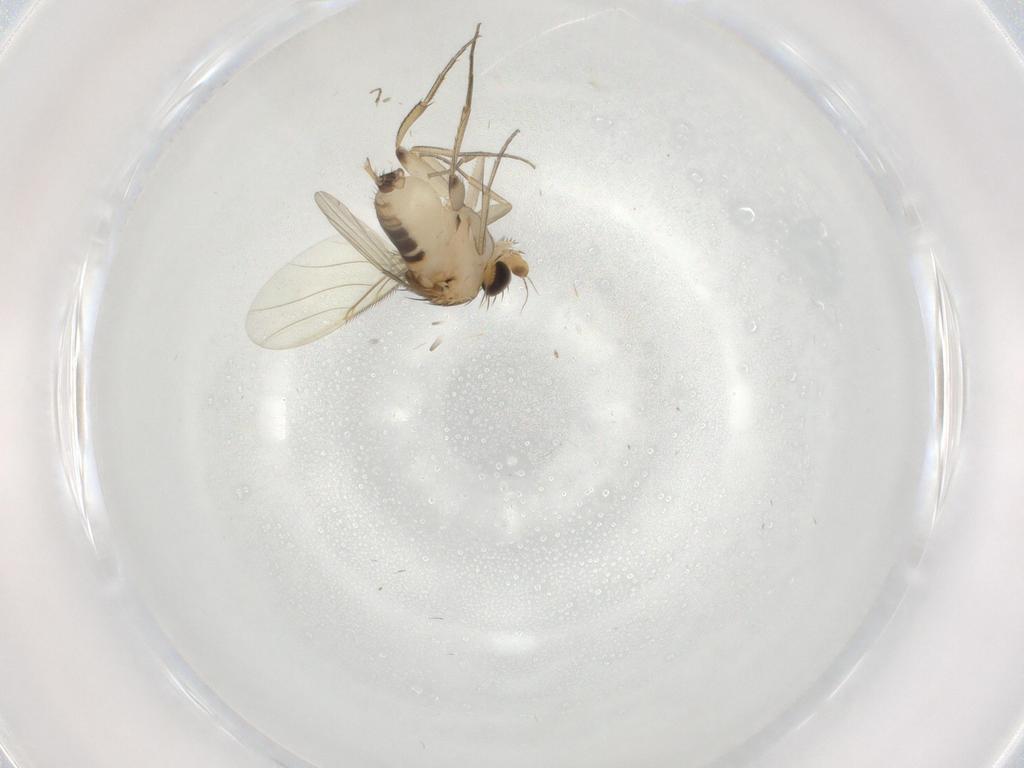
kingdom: Animalia
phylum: Arthropoda
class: Insecta
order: Diptera
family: Phoridae
